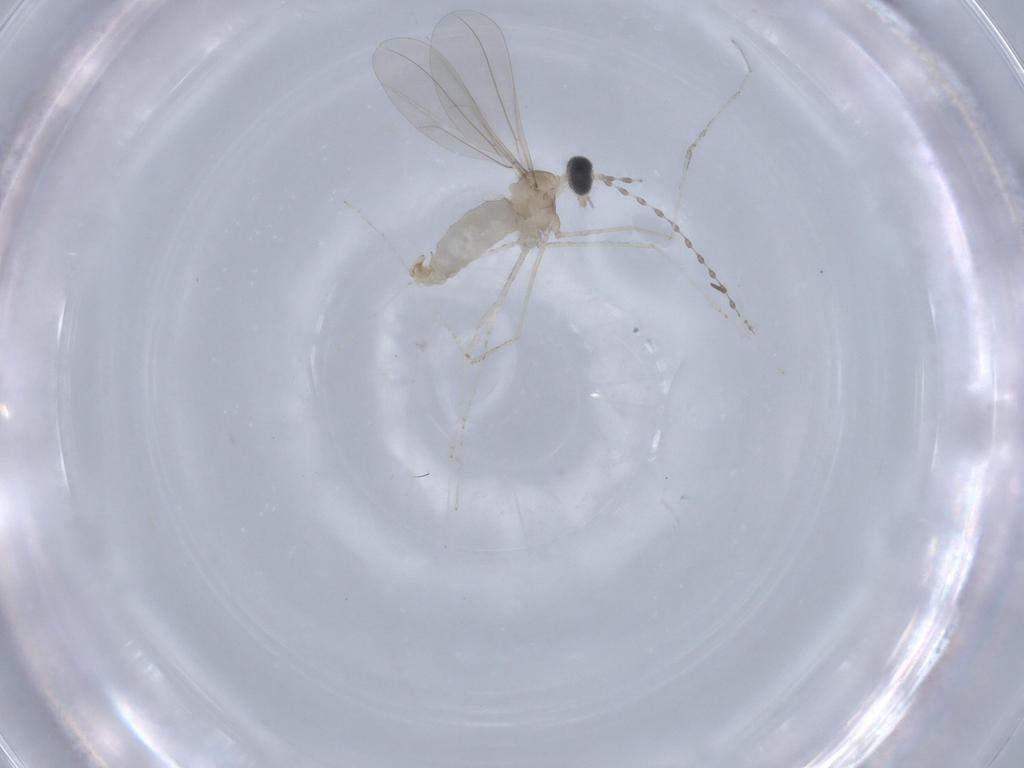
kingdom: Animalia
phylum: Arthropoda
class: Insecta
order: Diptera
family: Cecidomyiidae
